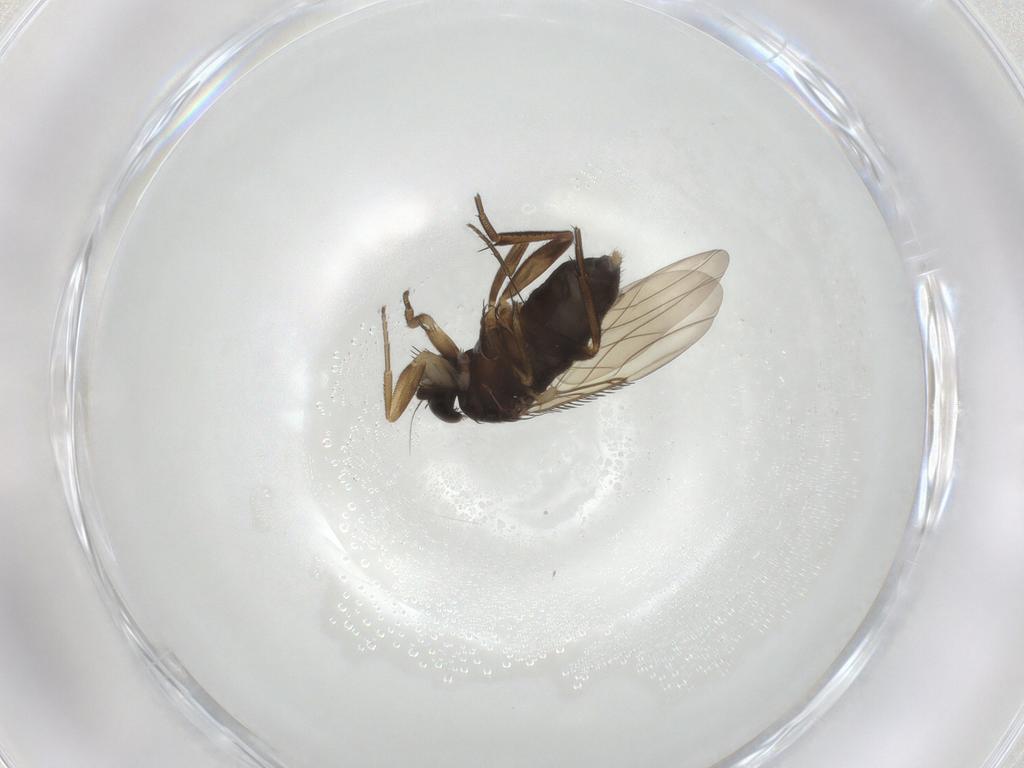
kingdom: Animalia
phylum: Arthropoda
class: Insecta
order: Diptera
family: Phoridae
